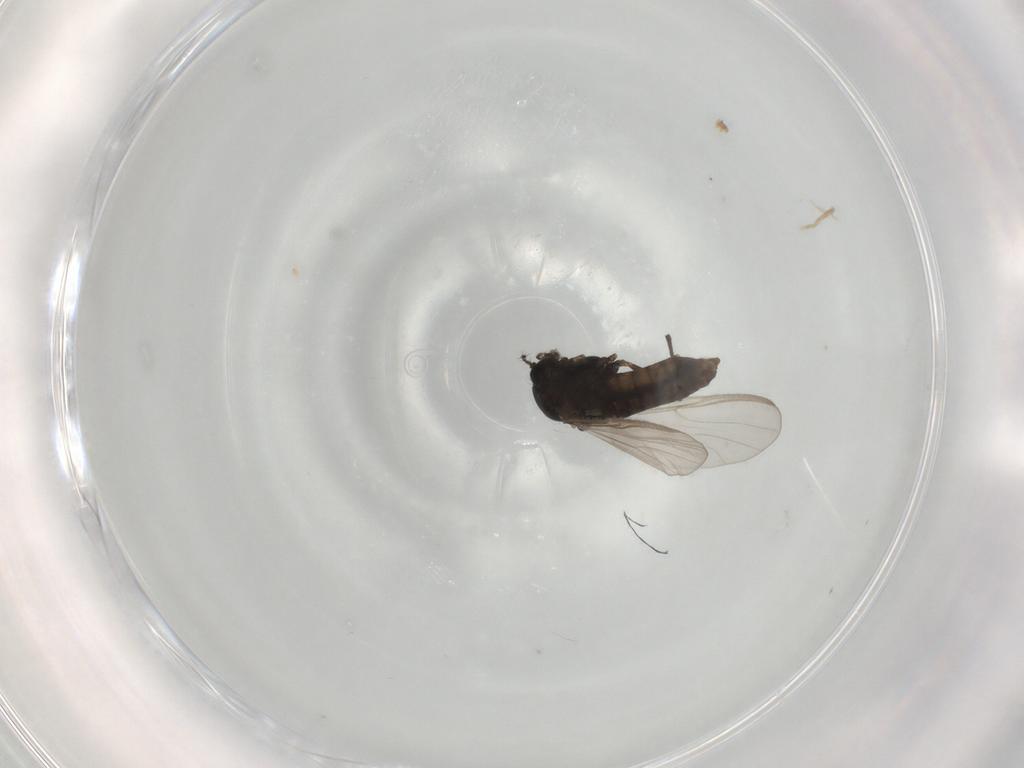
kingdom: Animalia
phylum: Arthropoda
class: Insecta
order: Diptera
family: Chironomidae
